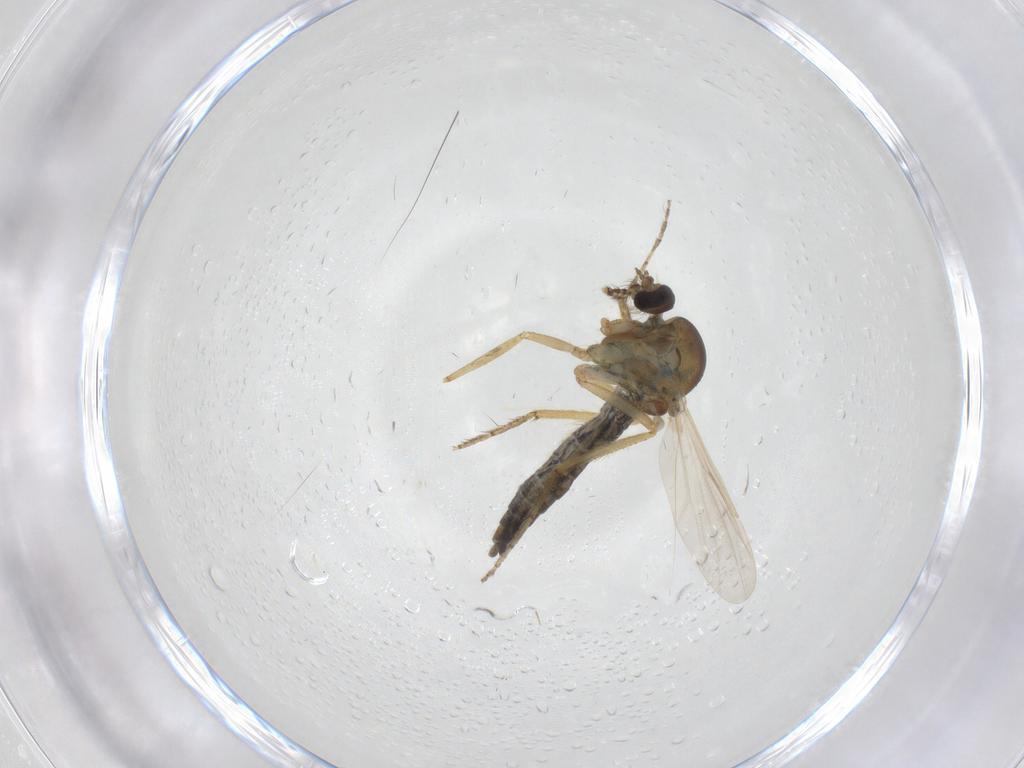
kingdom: Animalia
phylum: Arthropoda
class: Insecta
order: Diptera
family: Ceratopogonidae
